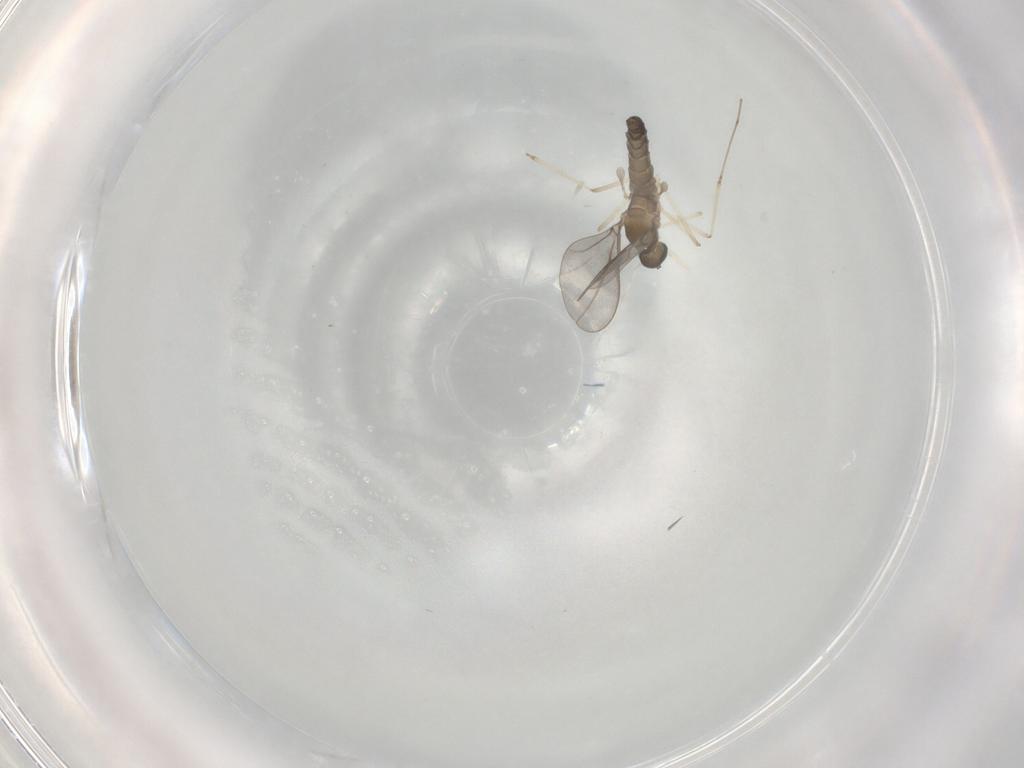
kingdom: Animalia
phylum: Arthropoda
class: Insecta
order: Diptera
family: Cecidomyiidae
